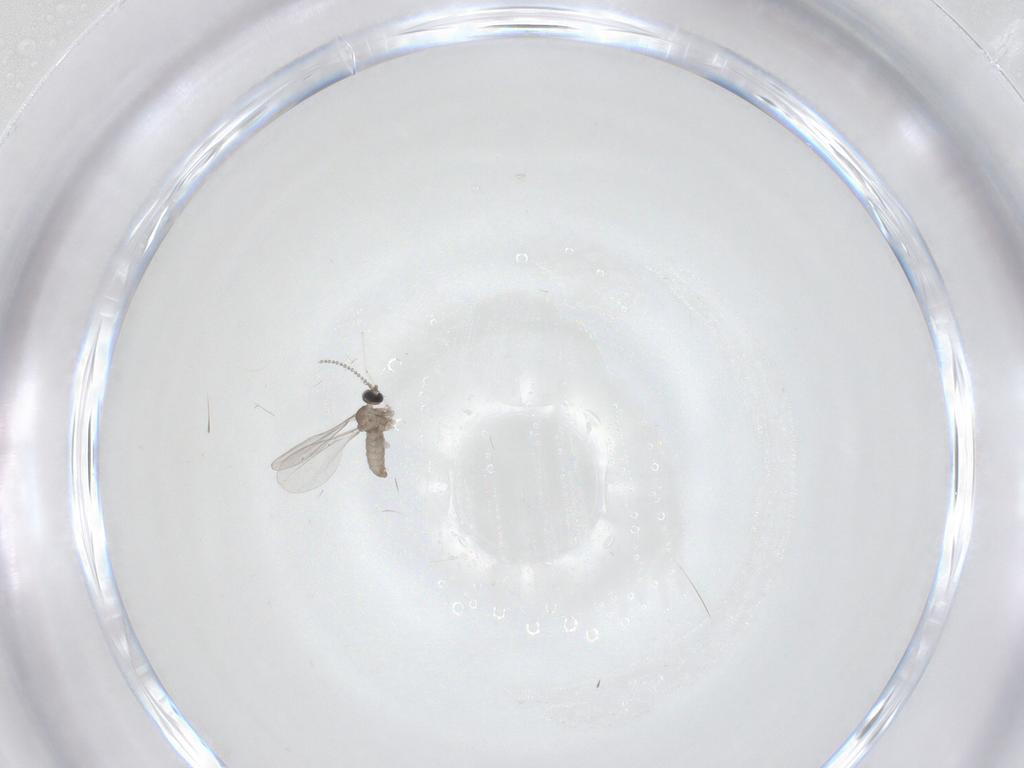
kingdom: Animalia
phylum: Arthropoda
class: Insecta
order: Diptera
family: Cecidomyiidae
